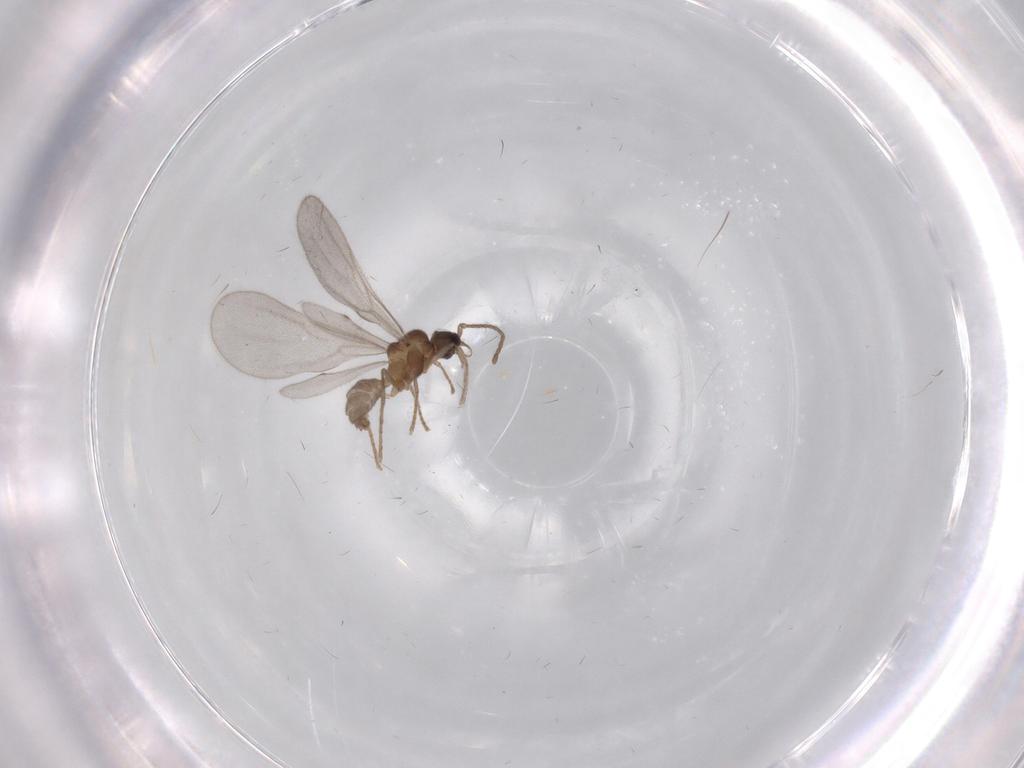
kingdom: Animalia
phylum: Arthropoda
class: Insecta
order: Hymenoptera
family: Formicidae
